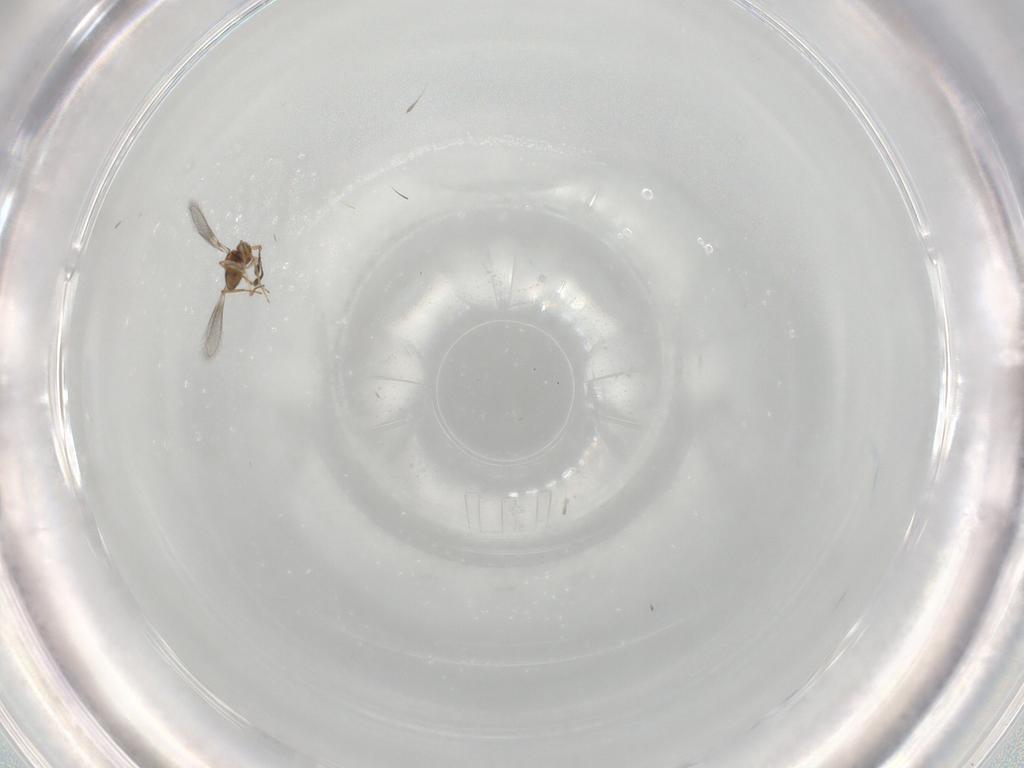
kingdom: Animalia
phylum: Arthropoda
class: Insecta
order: Hymenoptera
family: Mymaridae
